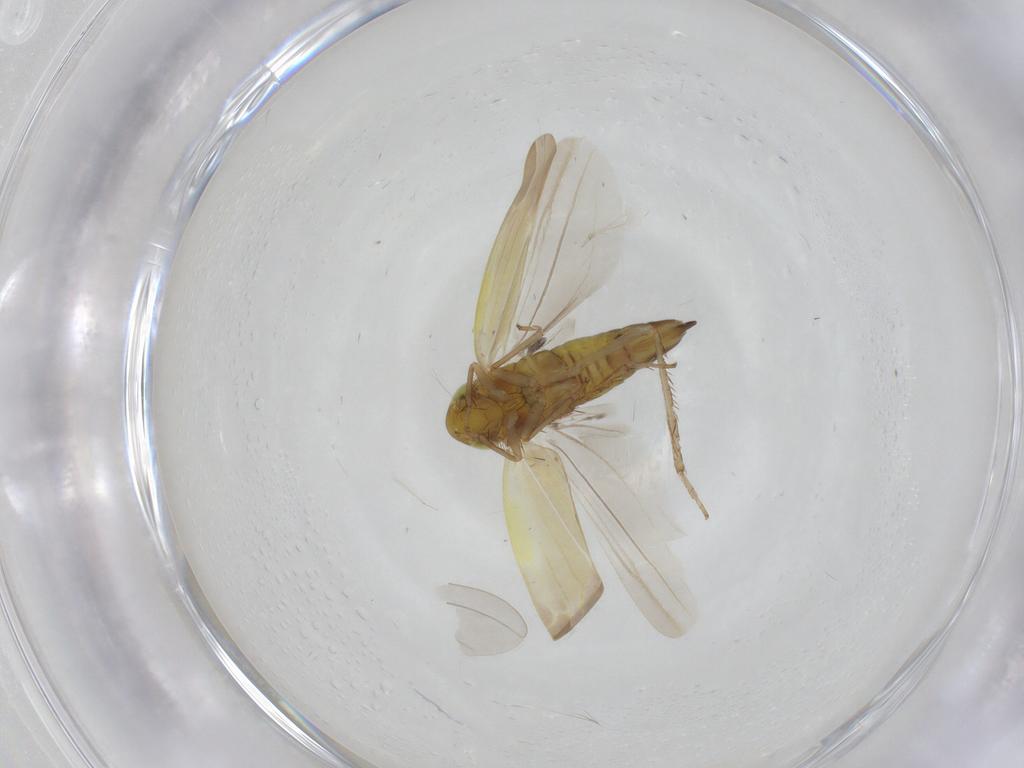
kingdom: Animalia
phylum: Arthropoda
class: Insecta
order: Hemiptera
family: Cicadellidae
